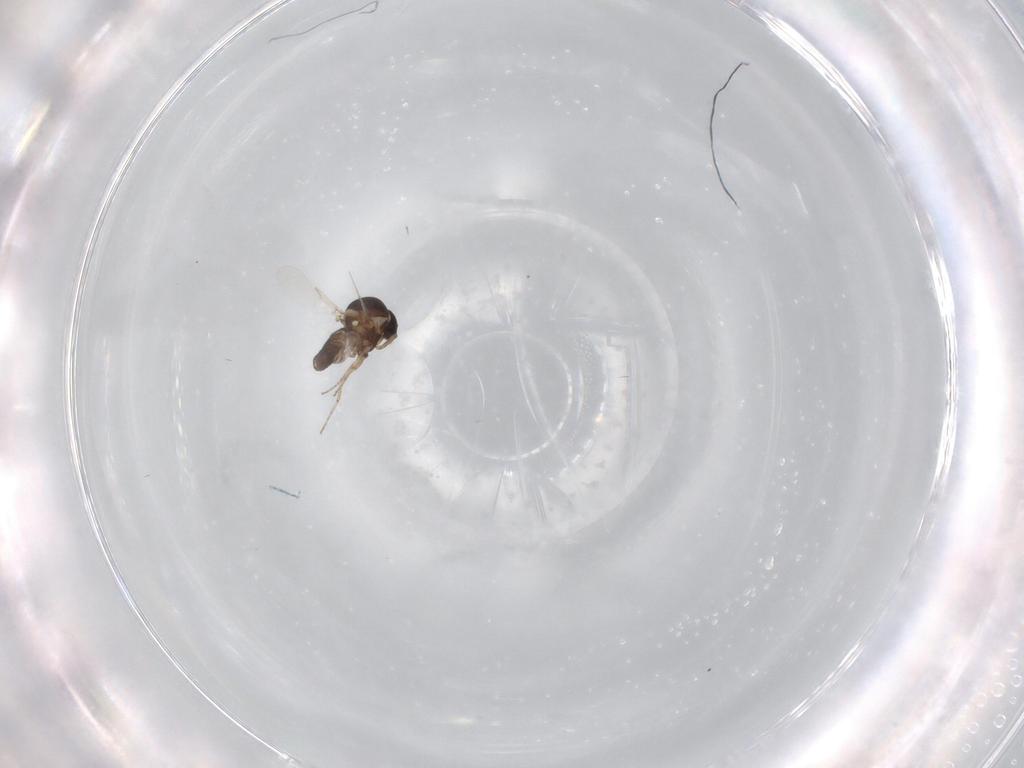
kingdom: Animalia
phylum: Arthropoda
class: Insecta
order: Diptera
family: Ceratopogonidae
